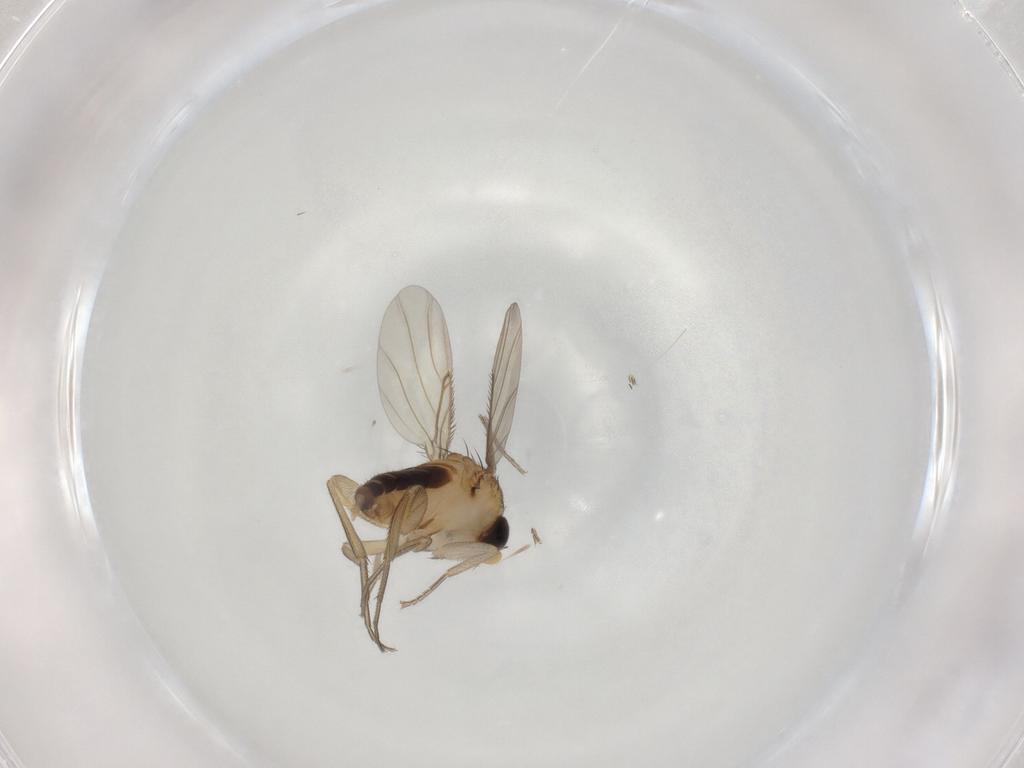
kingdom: Animalia
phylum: Arthropoda
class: Insecta
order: Diptera
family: Phoridae
